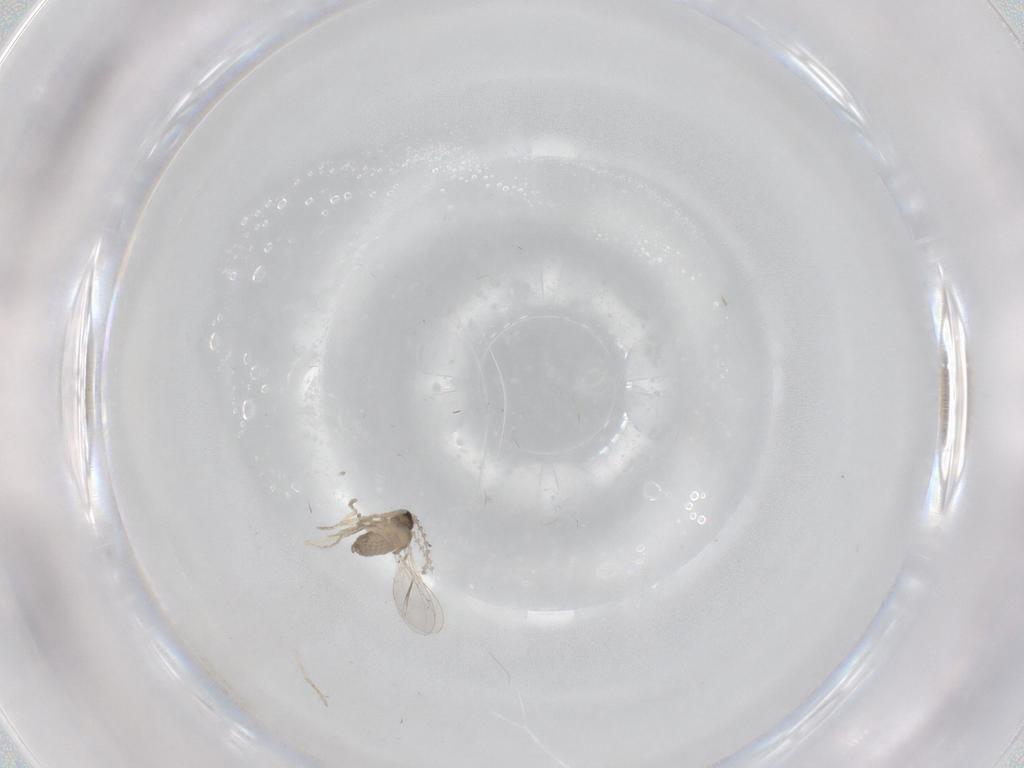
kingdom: Animalia
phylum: Arthropoda
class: Insecta
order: Diptera
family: Cecidomyiidae
